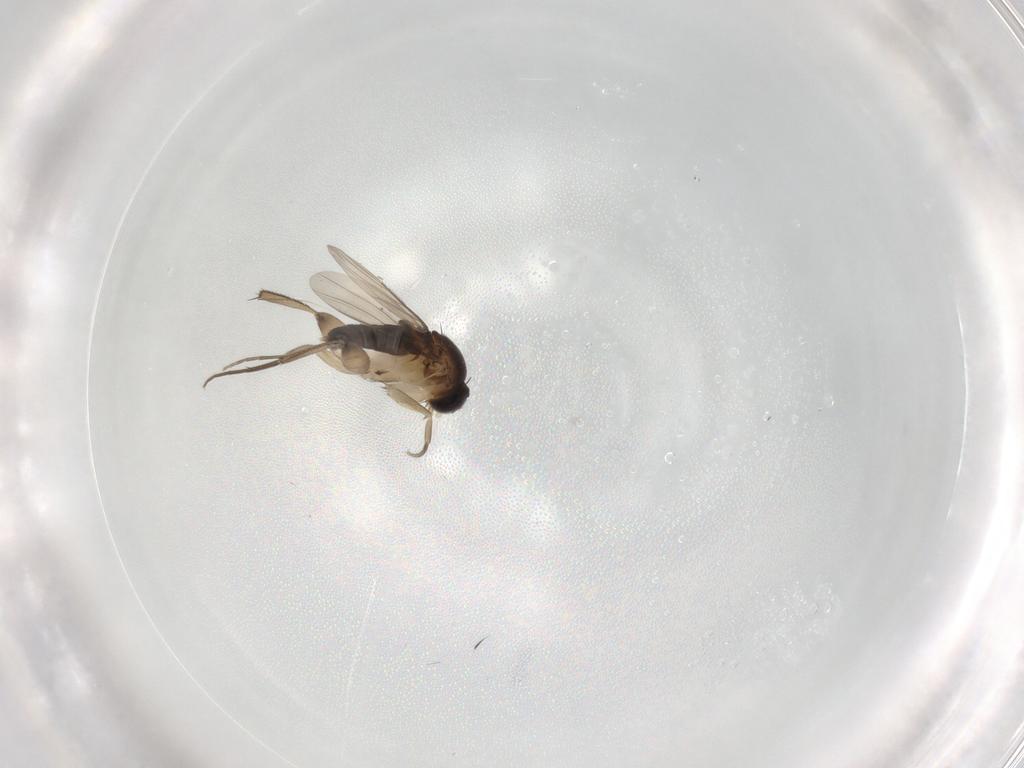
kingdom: Animalia
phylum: Arthropoda
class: Insecta
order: Diptera
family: Phoridae
